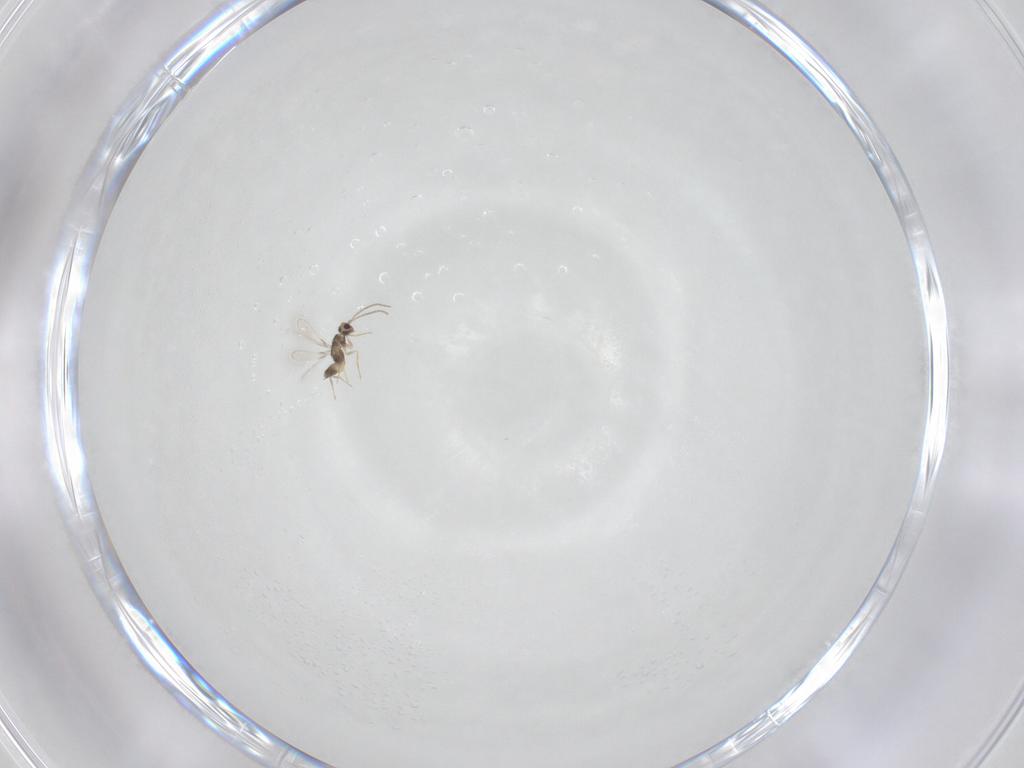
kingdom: Animalia
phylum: Arthropoda
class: Insecta
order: Hymenoptera
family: Mymaridae
